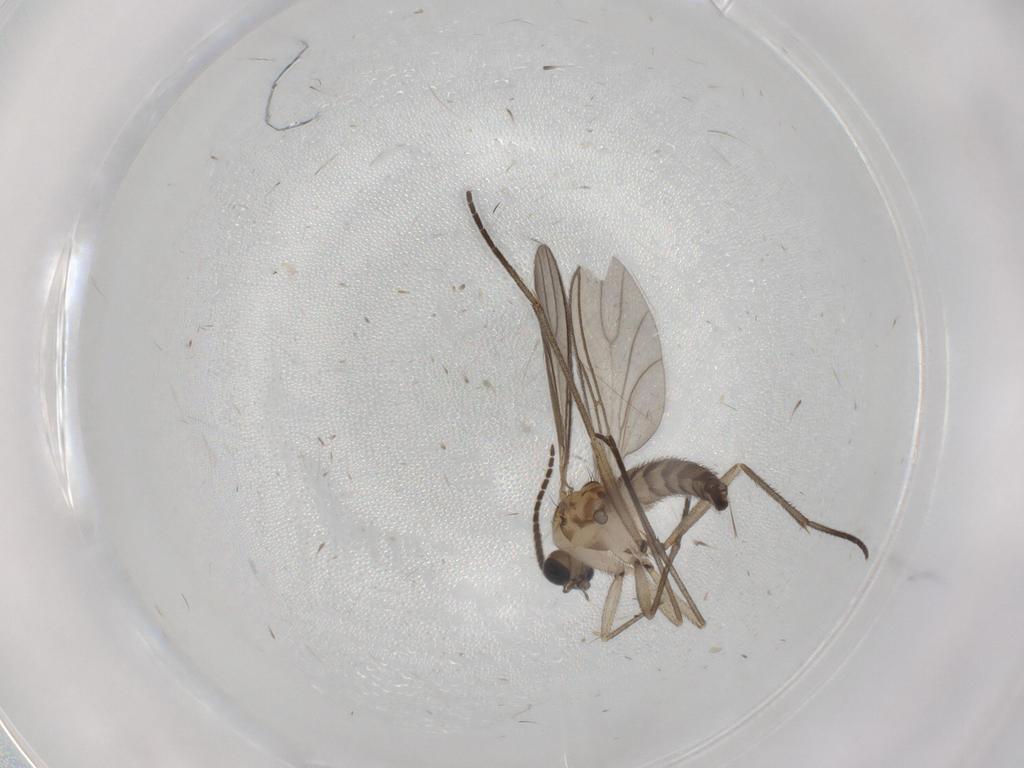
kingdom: Animalia
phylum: Arthropoda
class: Insecta
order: Diptera
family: Sciaridae
